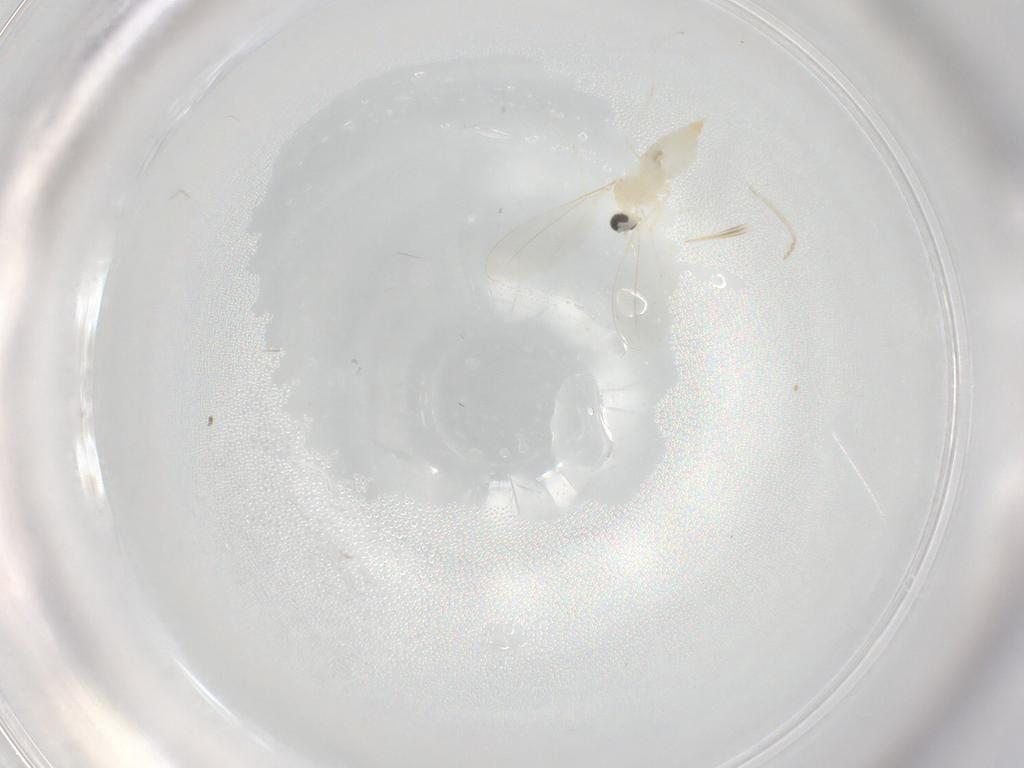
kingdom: Animalia
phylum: Arthropoda
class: Insecta
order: Diptera
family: Cecidomyiidae
